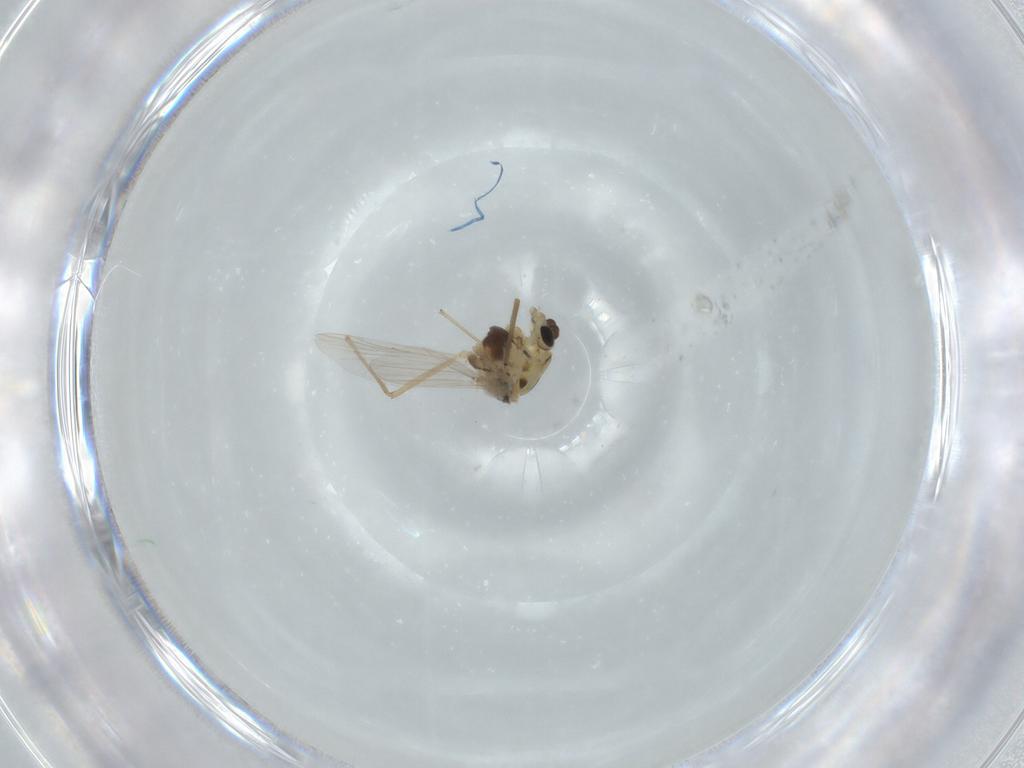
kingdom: Animalia
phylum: Arthropoda
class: Insecta
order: Diptera
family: Chironomidae
